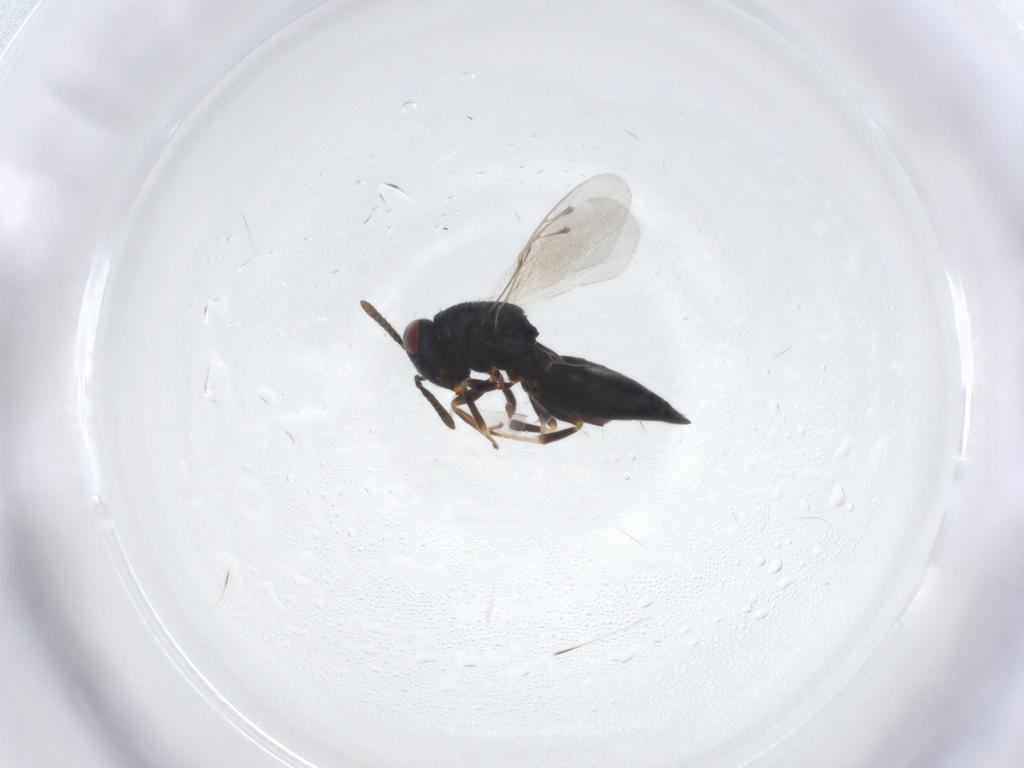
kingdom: Animalia
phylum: Arthropoda
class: Insecta
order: Hymenoptera
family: Pteromalidae
